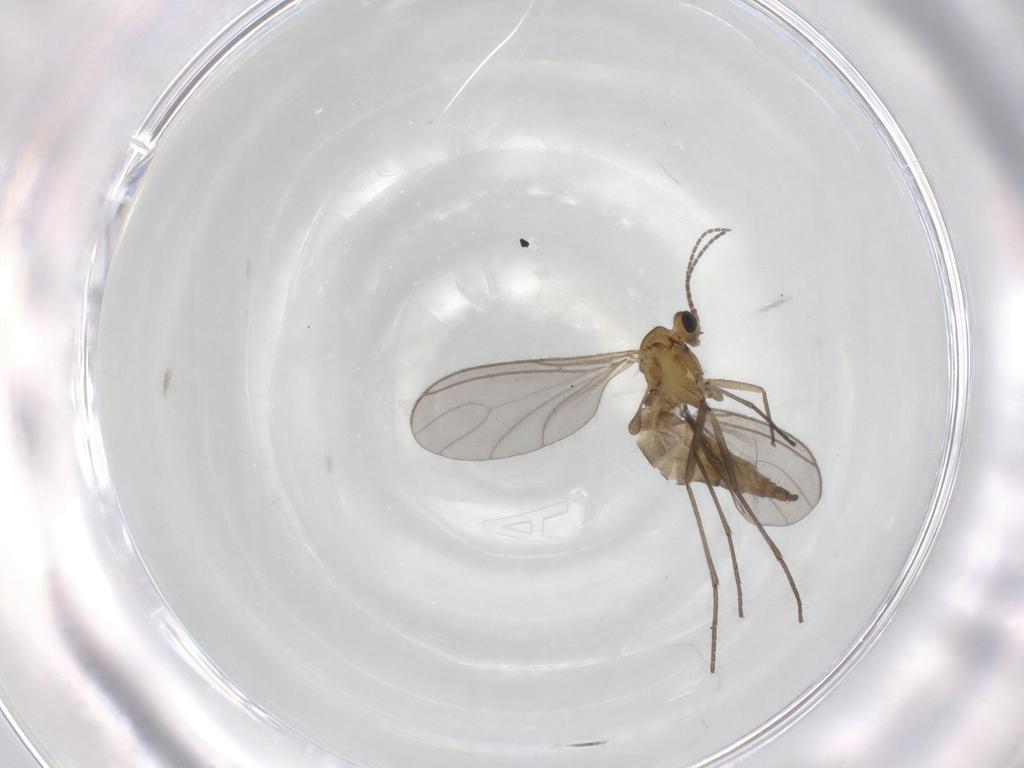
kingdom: Animalia
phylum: Arthropoda
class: Insecta
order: Diptera
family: Sciaridae
